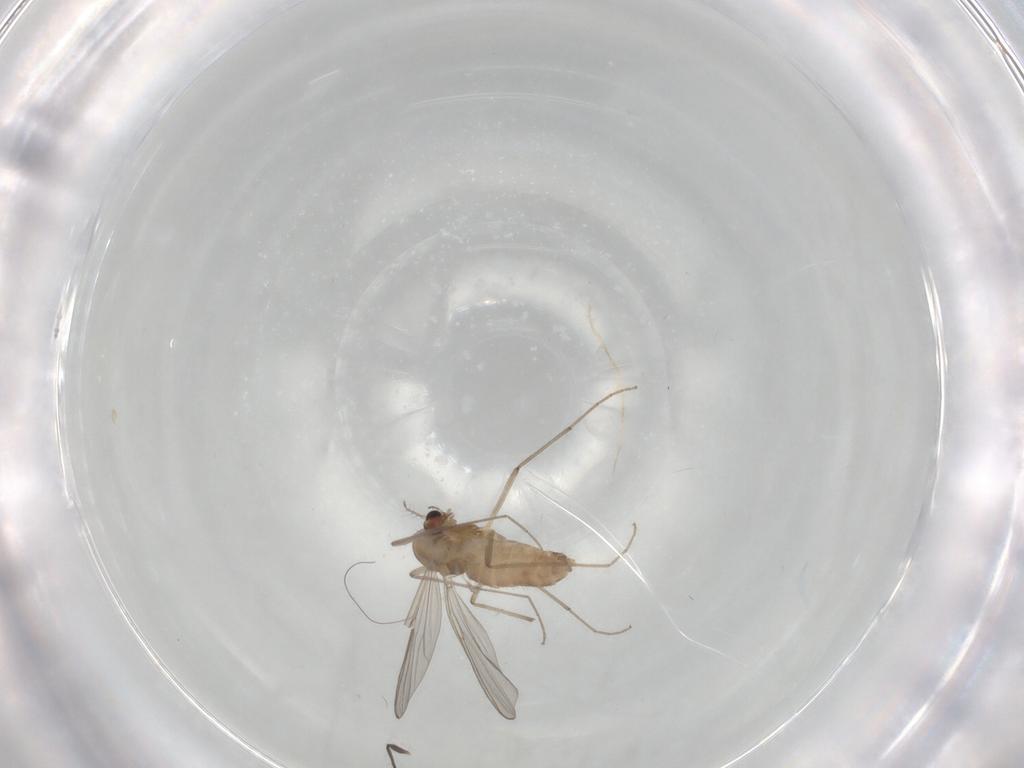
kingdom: Animalia
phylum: Arthropoda
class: Insecta
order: Diptera
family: Chironomidae
